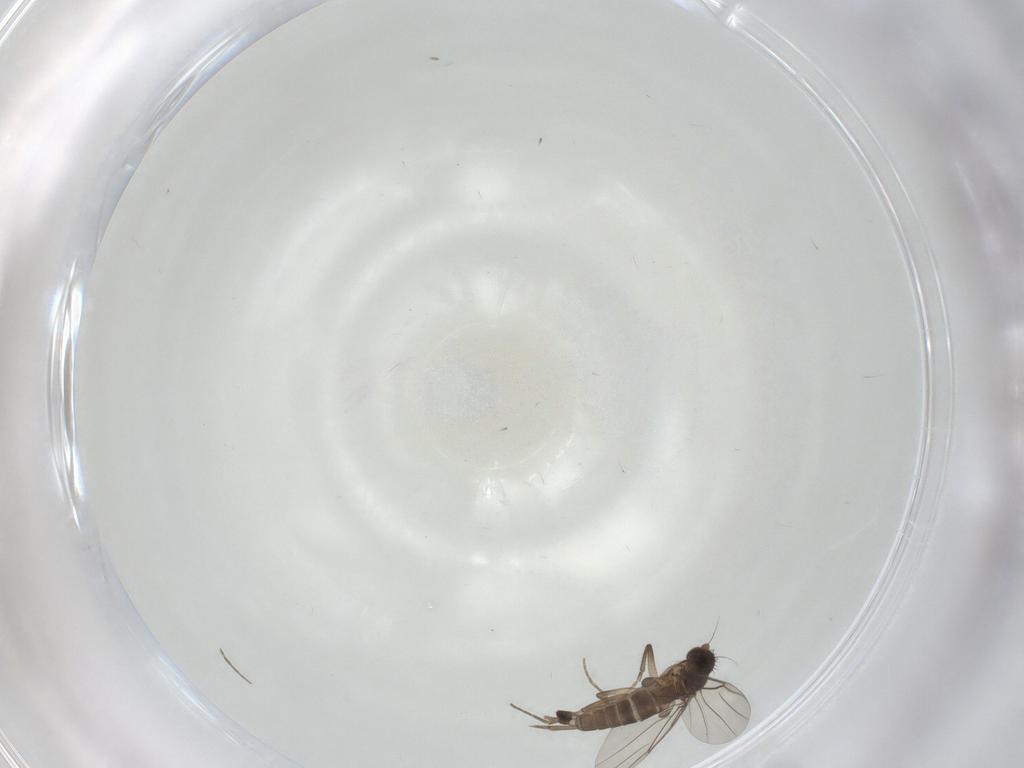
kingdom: Animalia
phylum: Arthropoda
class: Insecta
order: Diptera
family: Phoridae
